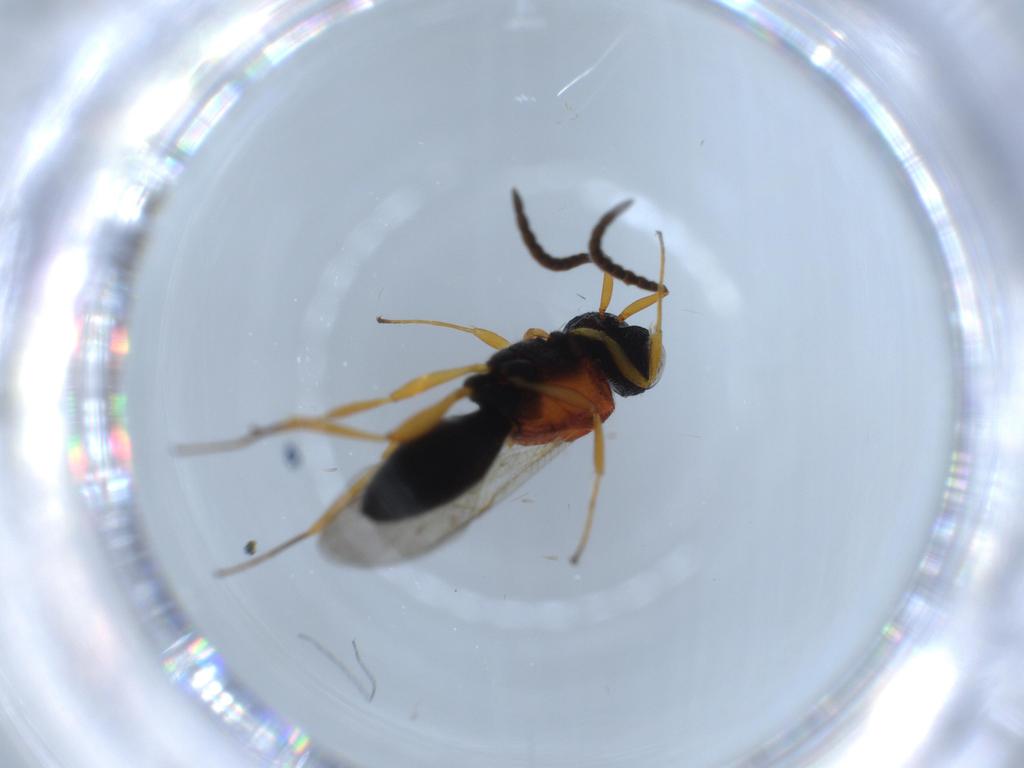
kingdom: Animalia
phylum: Arthropoda
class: Insecta
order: Hymenoptera
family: Scelionidae
